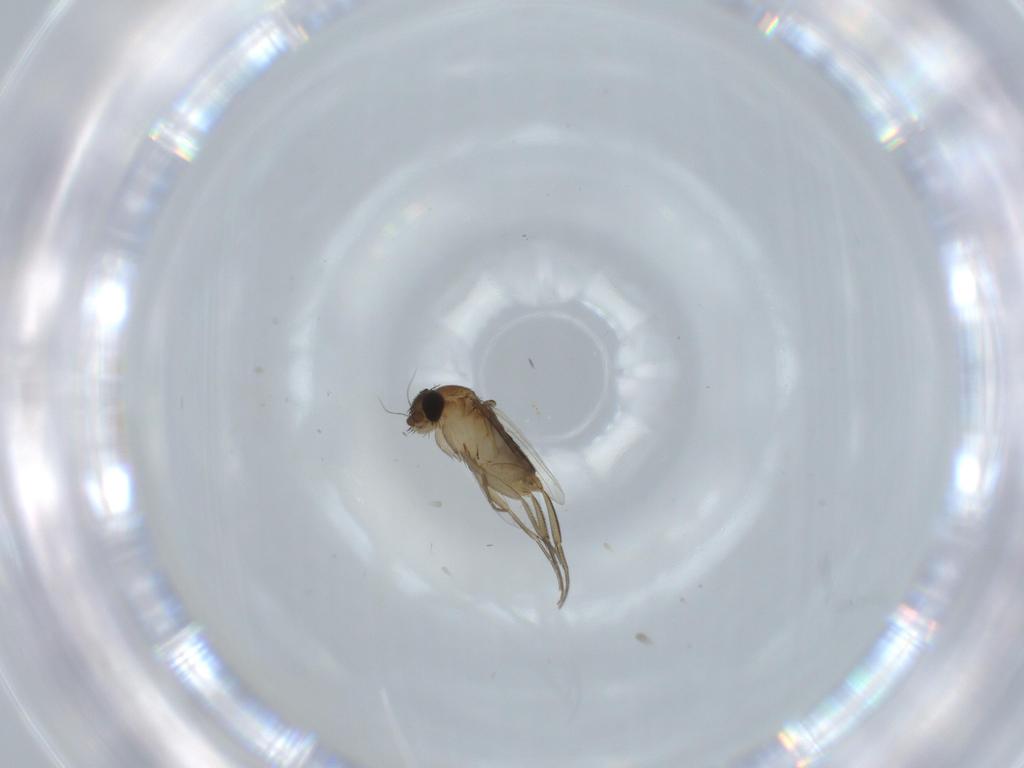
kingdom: Animalia
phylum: Arthropoda
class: Insecta
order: Diptera
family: Phoridae
